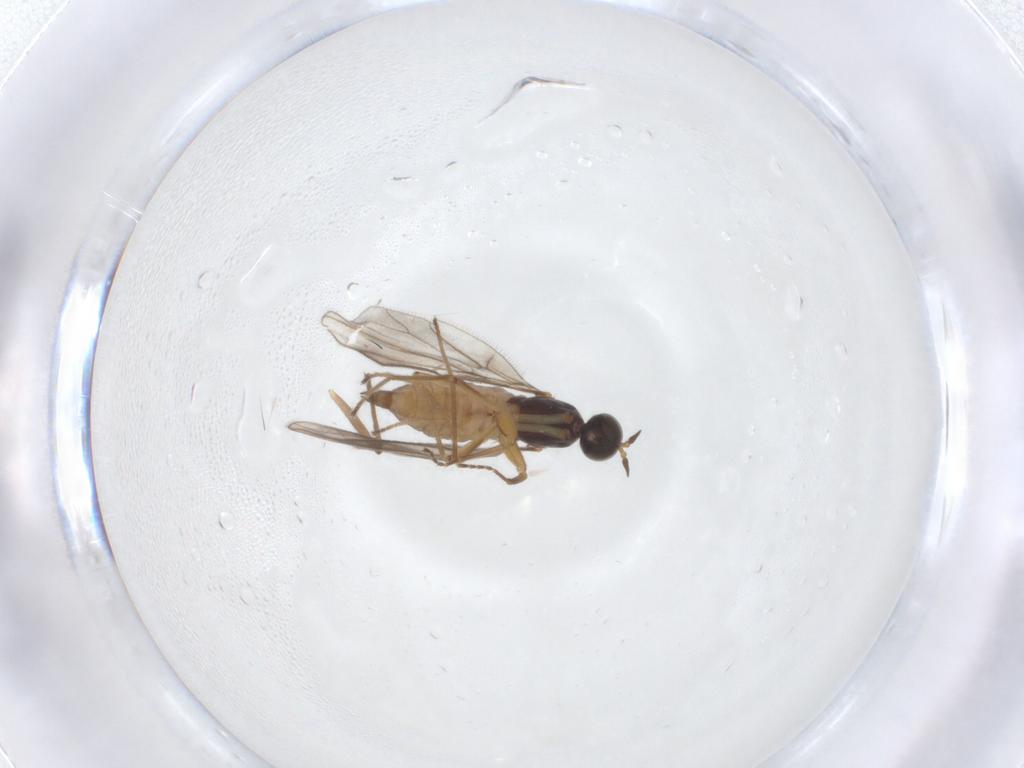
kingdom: Animalia
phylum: Arthropoda
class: Insecta
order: Diptera
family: Empididae
